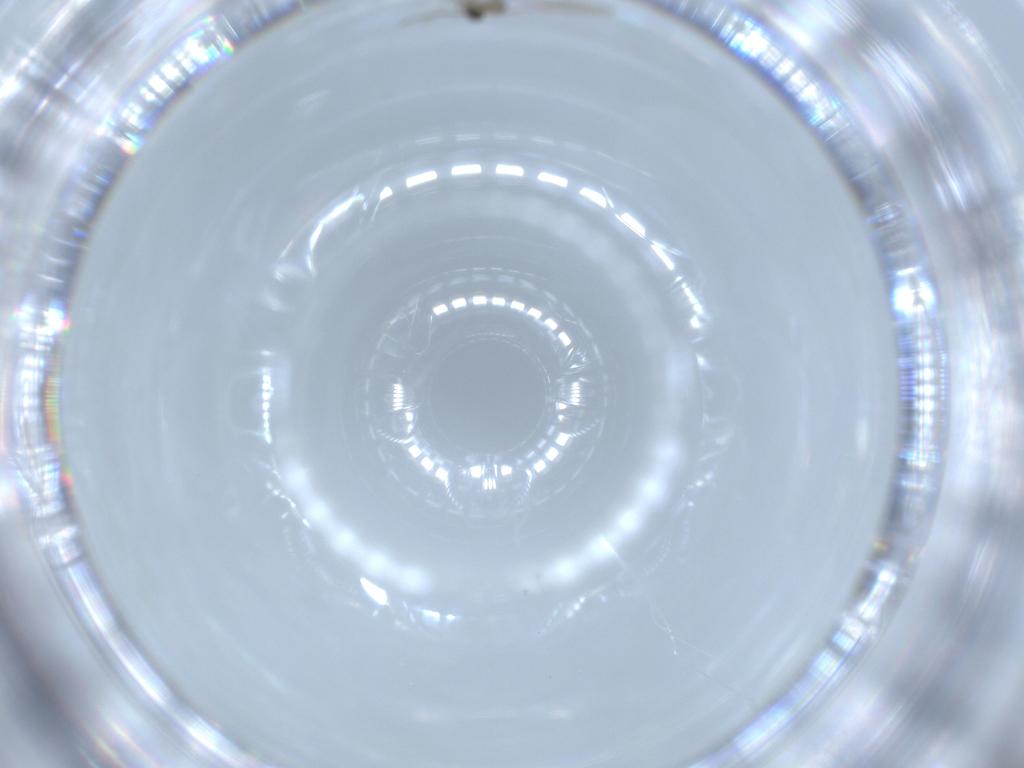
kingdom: Animalia
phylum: Arthropoda
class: Insecta
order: Diptera
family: Cecidomyiidae
